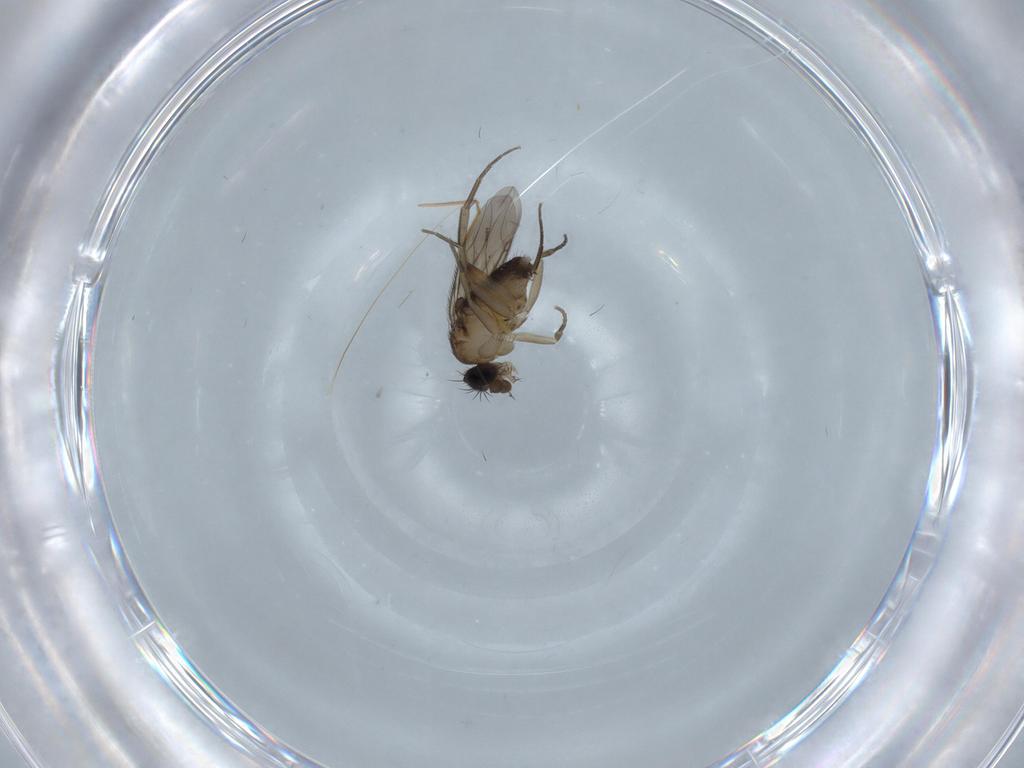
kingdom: Animalia
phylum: Arthropoda
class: Insecta
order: Diptera
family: Phoridae
